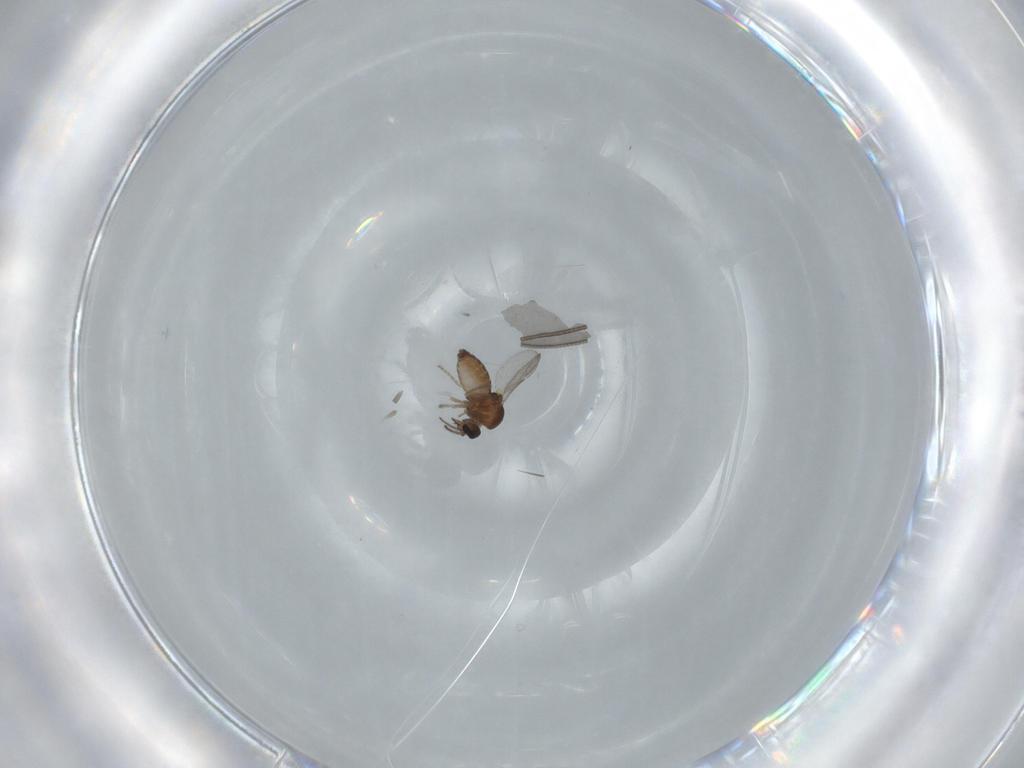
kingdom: Animalia
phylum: Arthropoda
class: Insecta
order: Diptera
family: Ceratopogonidae
